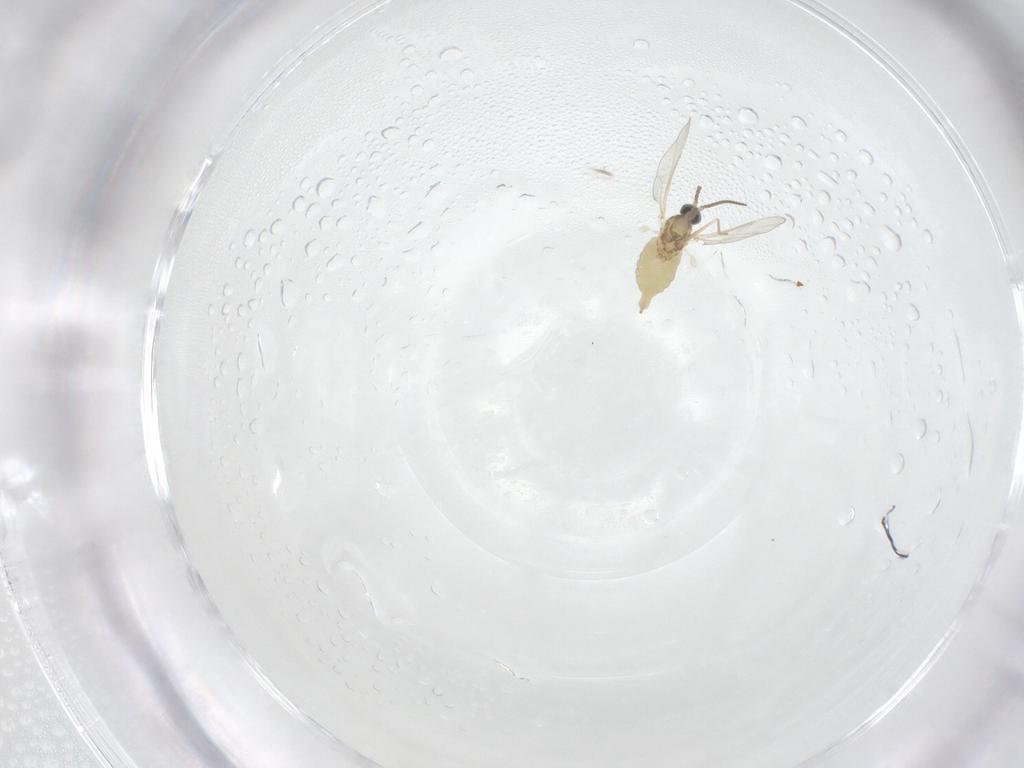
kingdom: Animalia
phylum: Arthropoda
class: Insecta
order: Diptera
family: Cecidomyiidae
